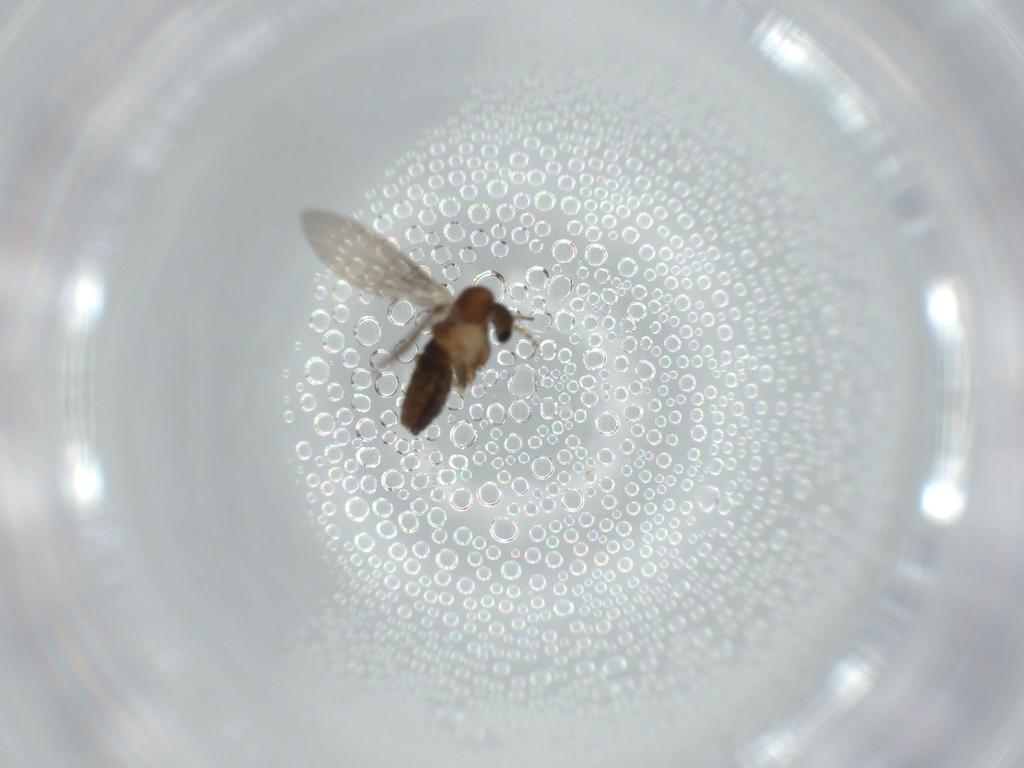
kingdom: Animalia
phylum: Arthropoda
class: Insecta
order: Diptera
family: Psychodidae
